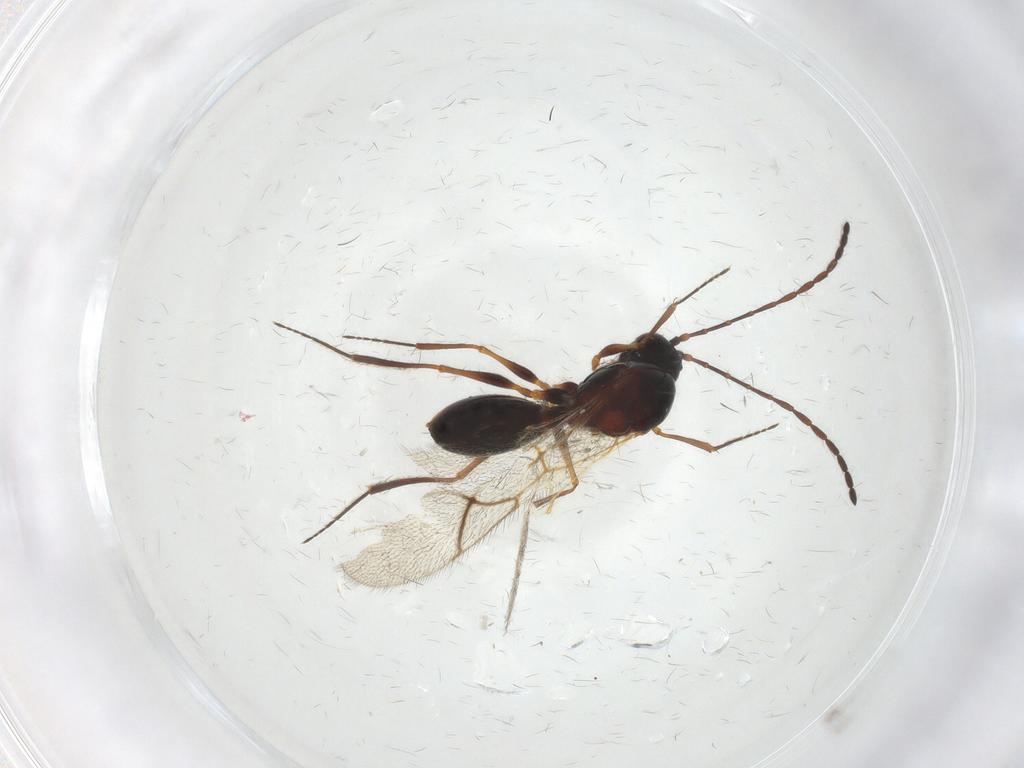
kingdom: Animalia
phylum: Arthropoda
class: Insecta
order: Hymenoptera
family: Figitidae
